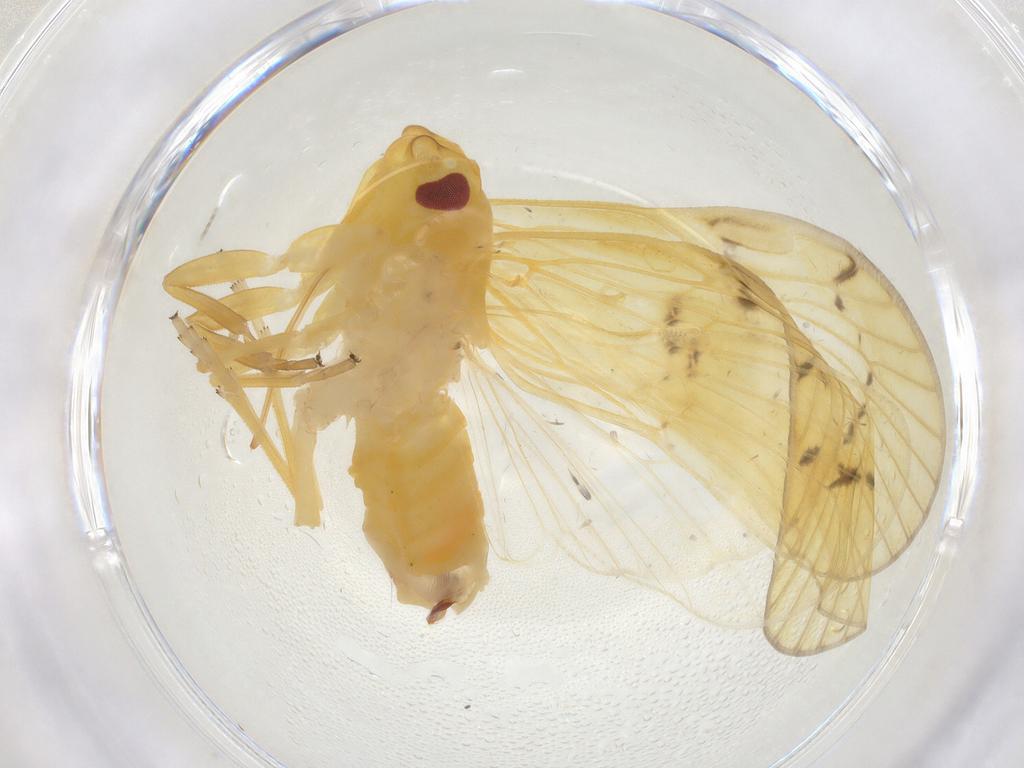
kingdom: Animalia
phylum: Arthropoda
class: Insecta
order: Hemiptera
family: Cixiidae
